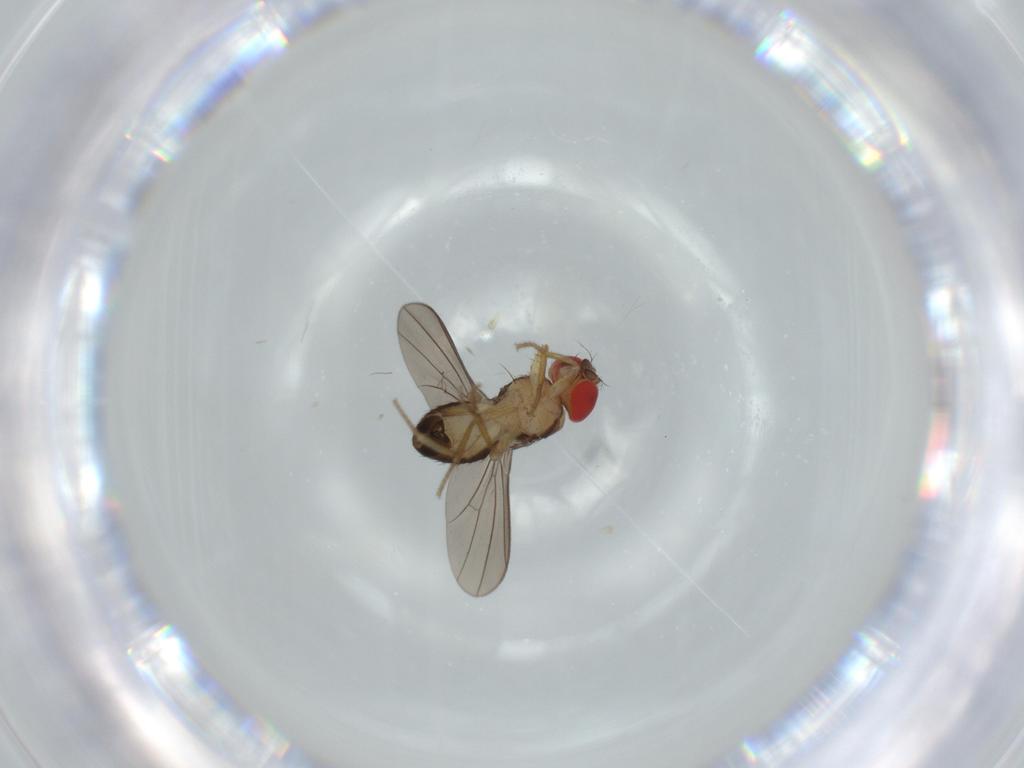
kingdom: Animalia
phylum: Arthropoda
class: Insecta
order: Diptera
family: Drosophilidae
